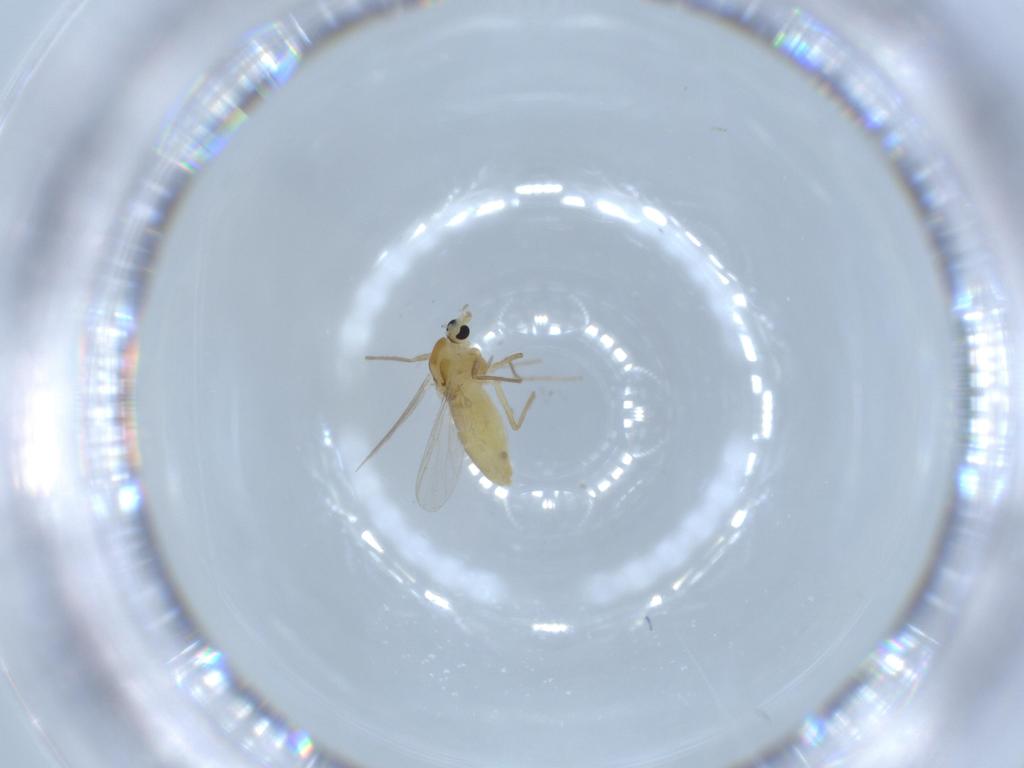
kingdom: Animalia
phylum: Arthropoda
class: Insecta
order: Diptera
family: Chironomidae
